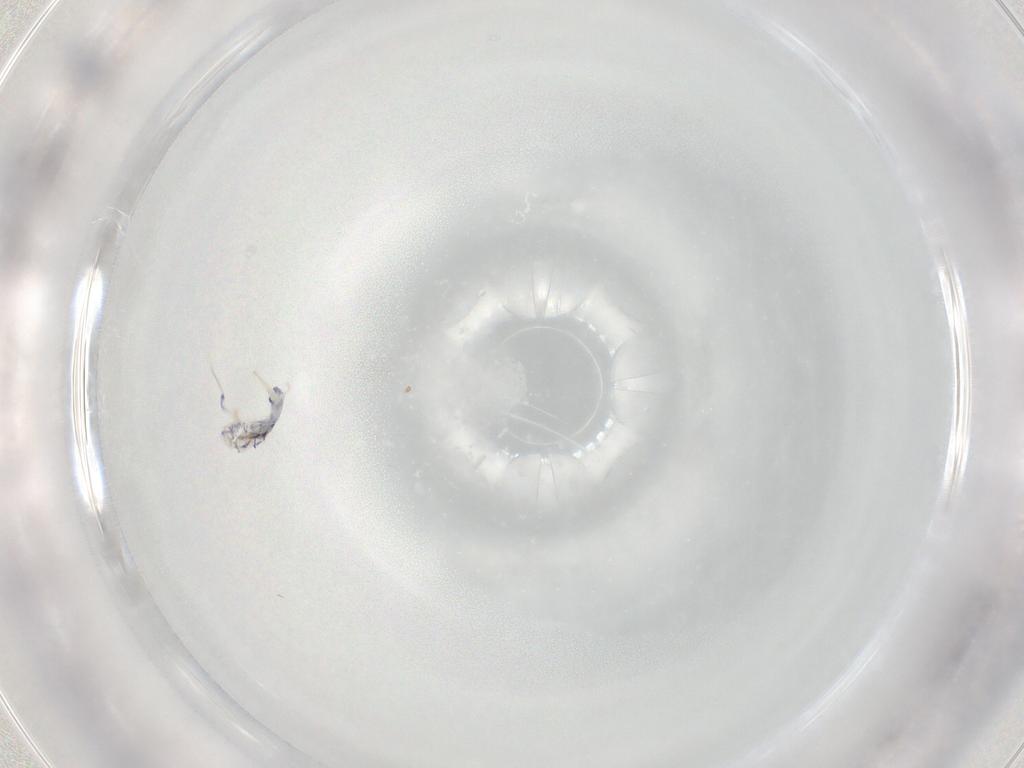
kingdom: Animalia
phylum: Arthropoda
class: Collembola
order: Entomobryomorpha
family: Entomobryidae
